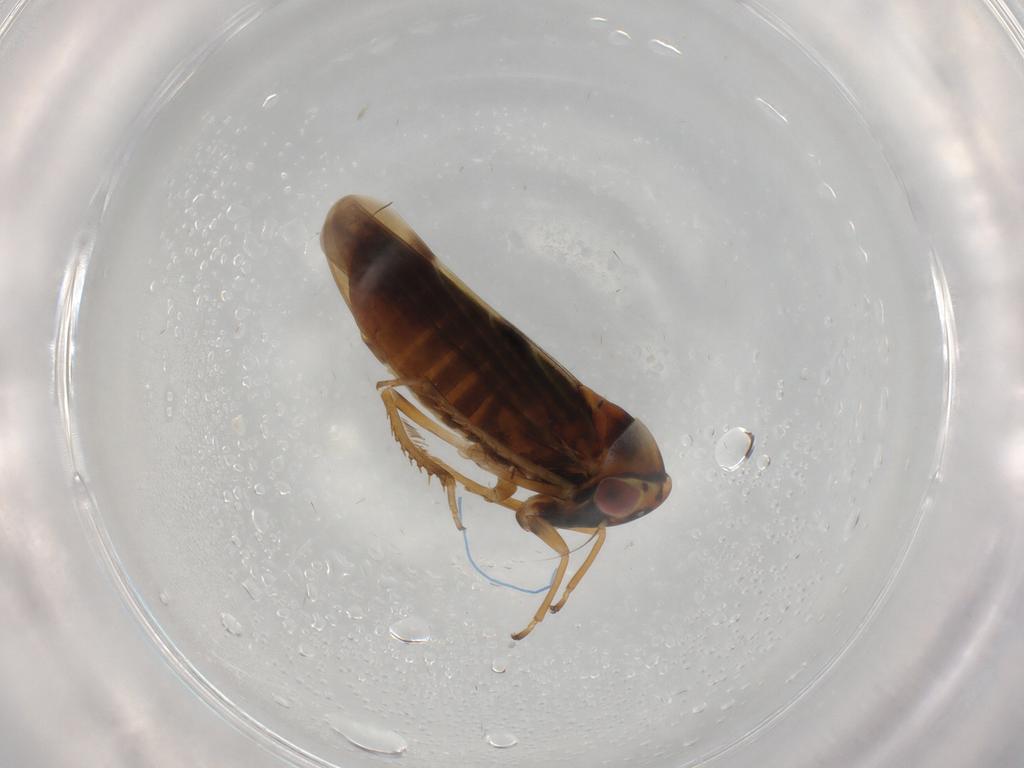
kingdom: Animalia
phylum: Arthropoda
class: Insecta
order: Hemiptera
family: Cicadellidae
